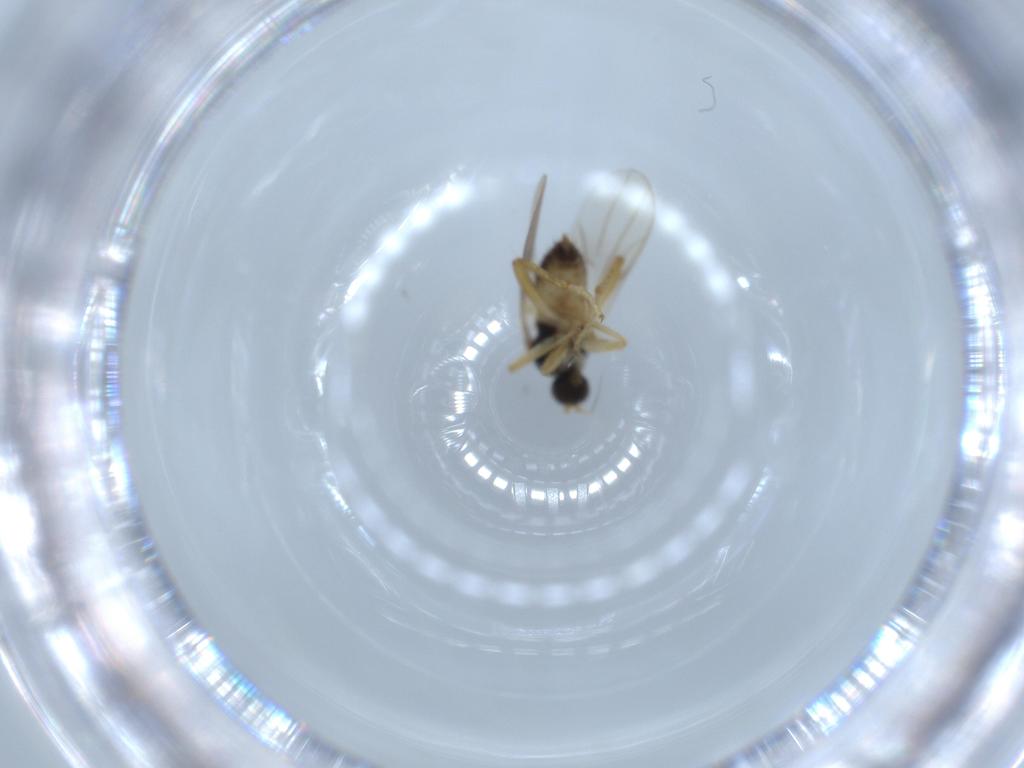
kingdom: Animalia
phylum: Arthropoda
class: Insecta
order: Diptera
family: Hybotidae
